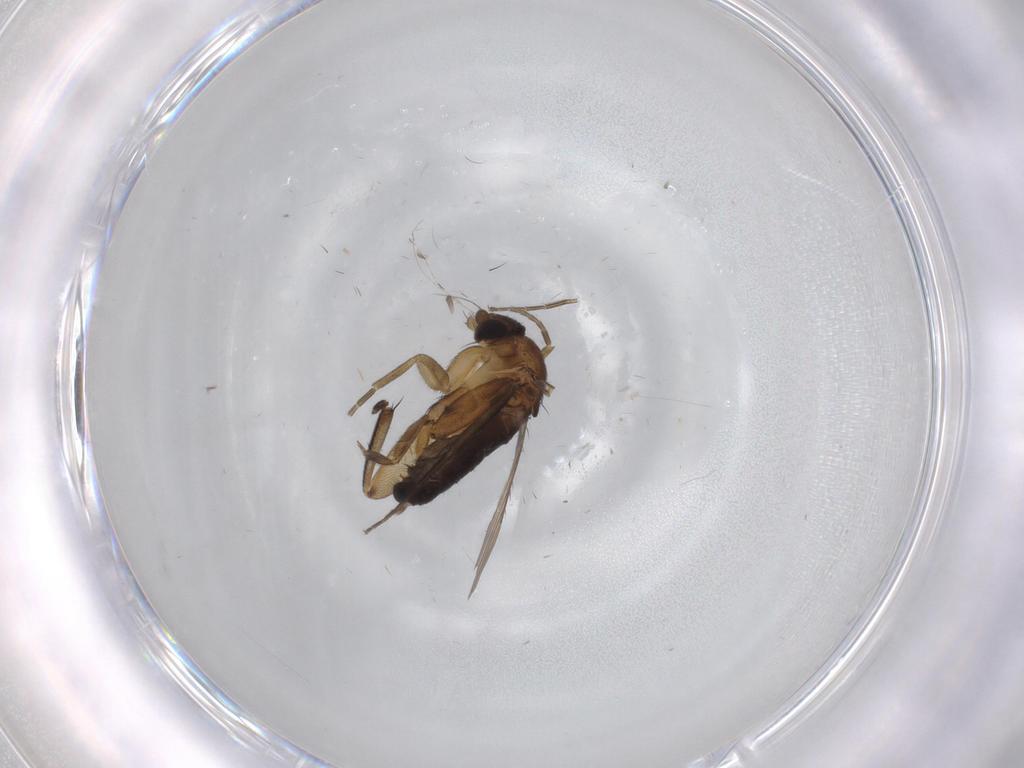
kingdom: Animalia
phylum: Arthropoda
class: Insecta
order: Diptera
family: Phoridae
